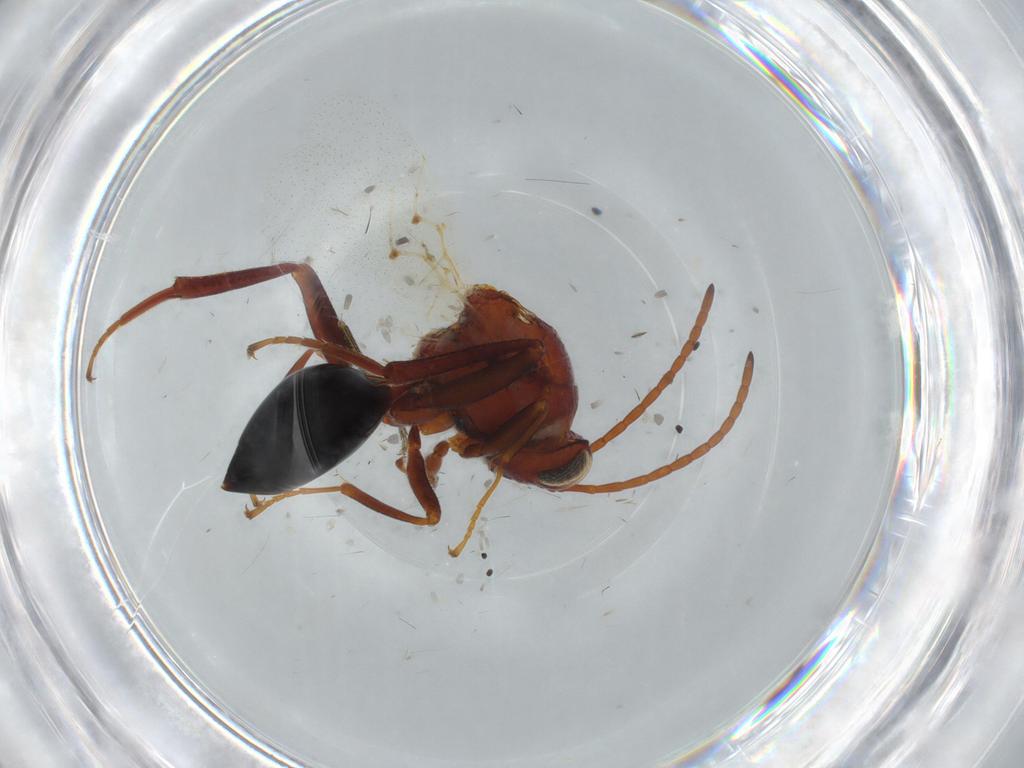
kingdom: Animalia
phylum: Arthropoda
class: Insecta
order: Hymenoptera
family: Figitidae
